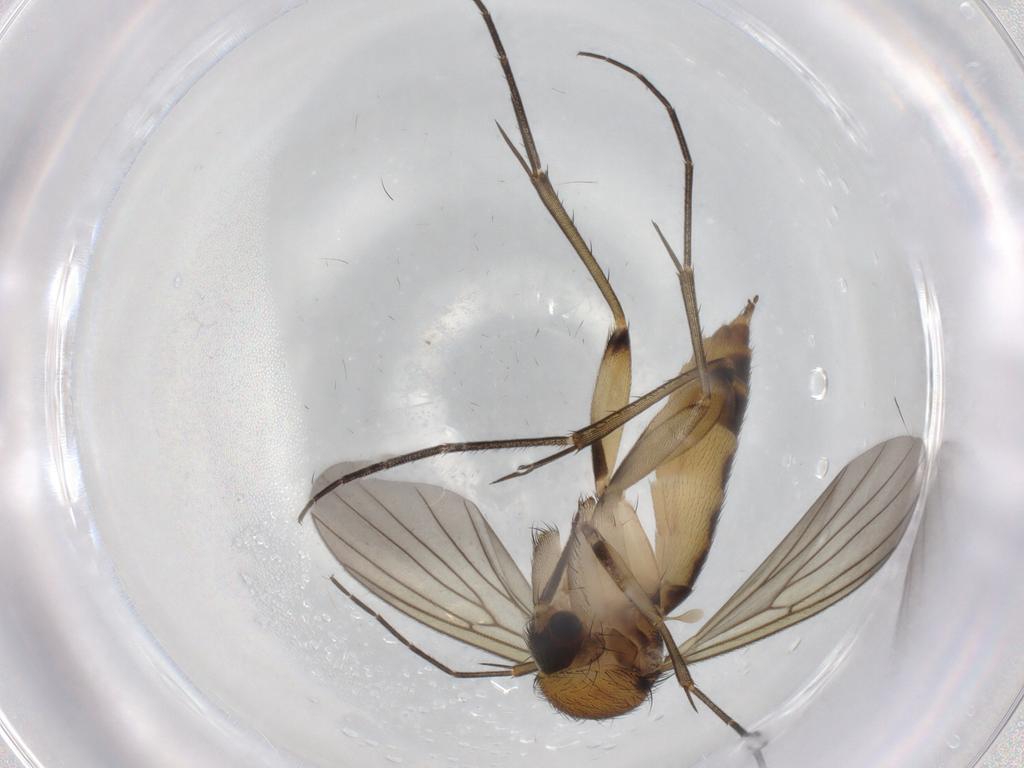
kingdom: Animalia
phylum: Arthropoda
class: Insecta
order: Diptera
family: Mycetophilidae
